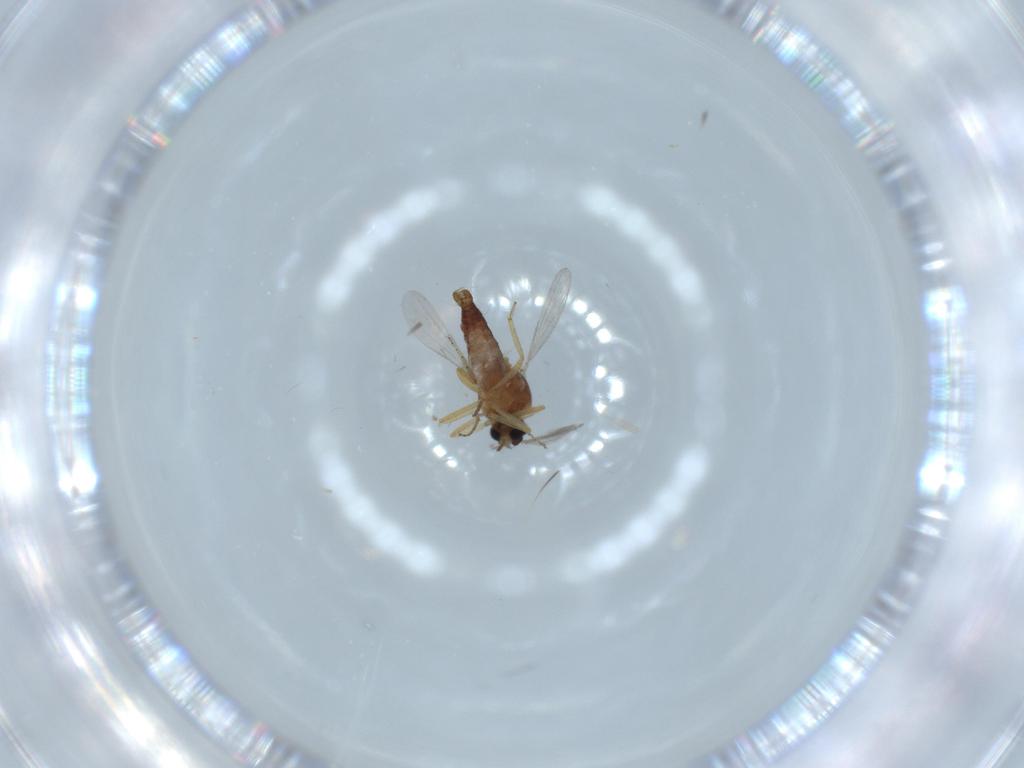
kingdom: Animalia
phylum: Arthropoda
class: Insecta
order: Diptera
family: Ceratopogonidae
